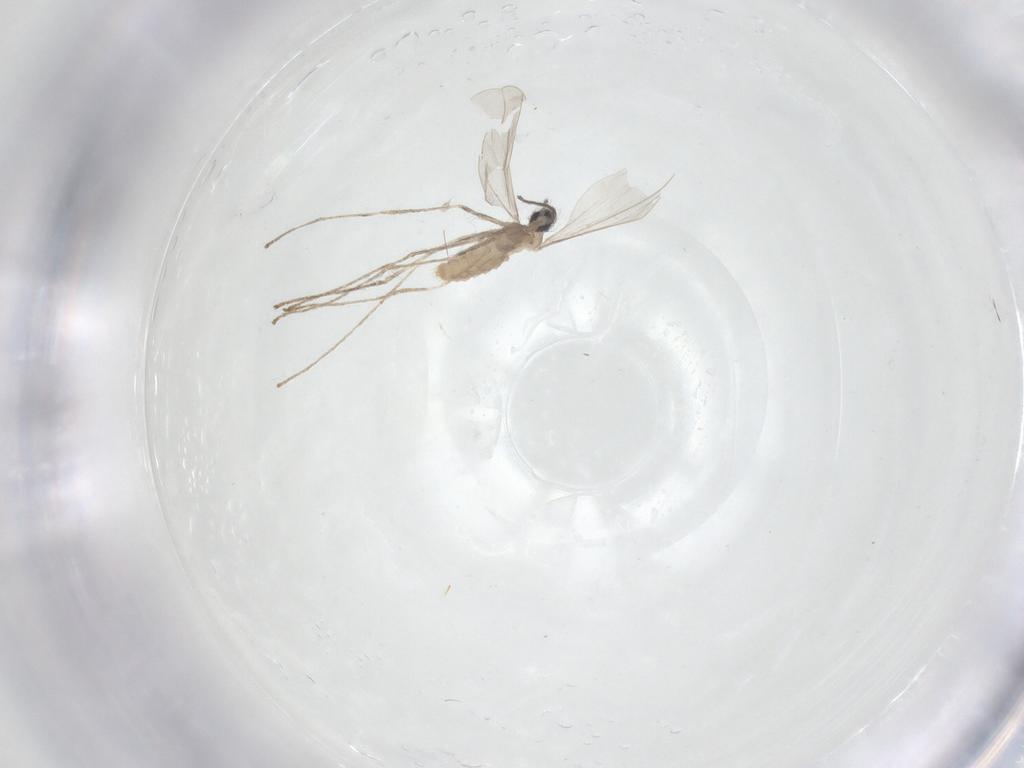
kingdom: Animalia
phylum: Arthropoda
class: Insecta
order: Diptera
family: Cecidomyiidae
